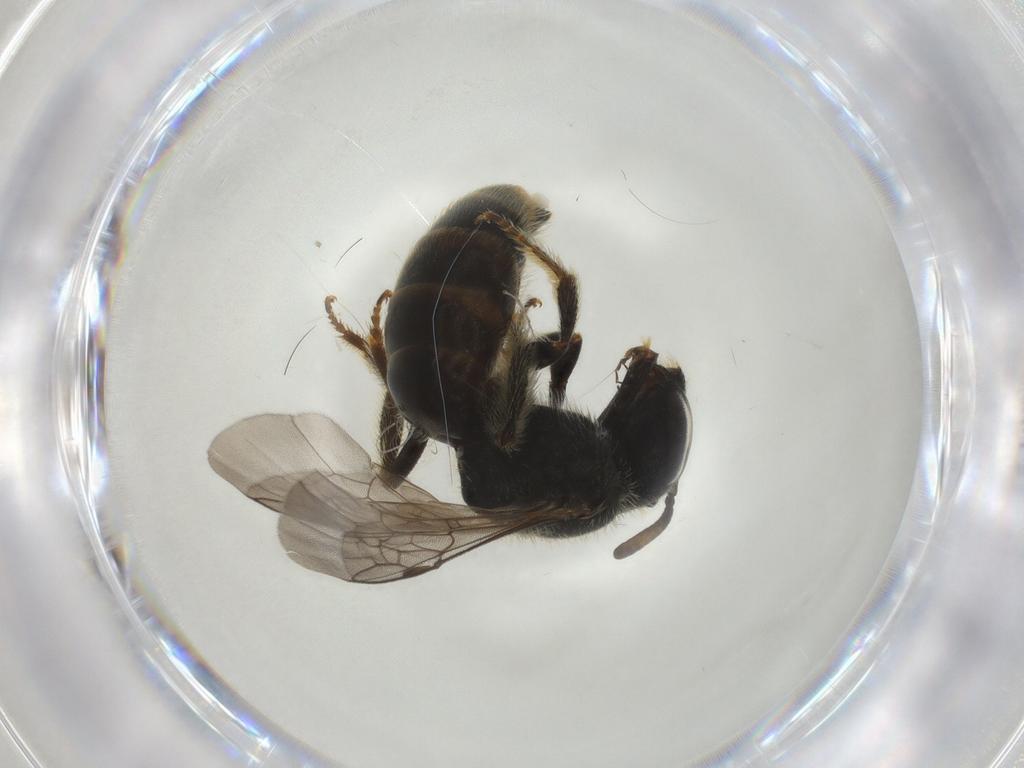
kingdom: Animalia
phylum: Arthropoda
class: Insecta
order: Hymenoptera
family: Halictidae
